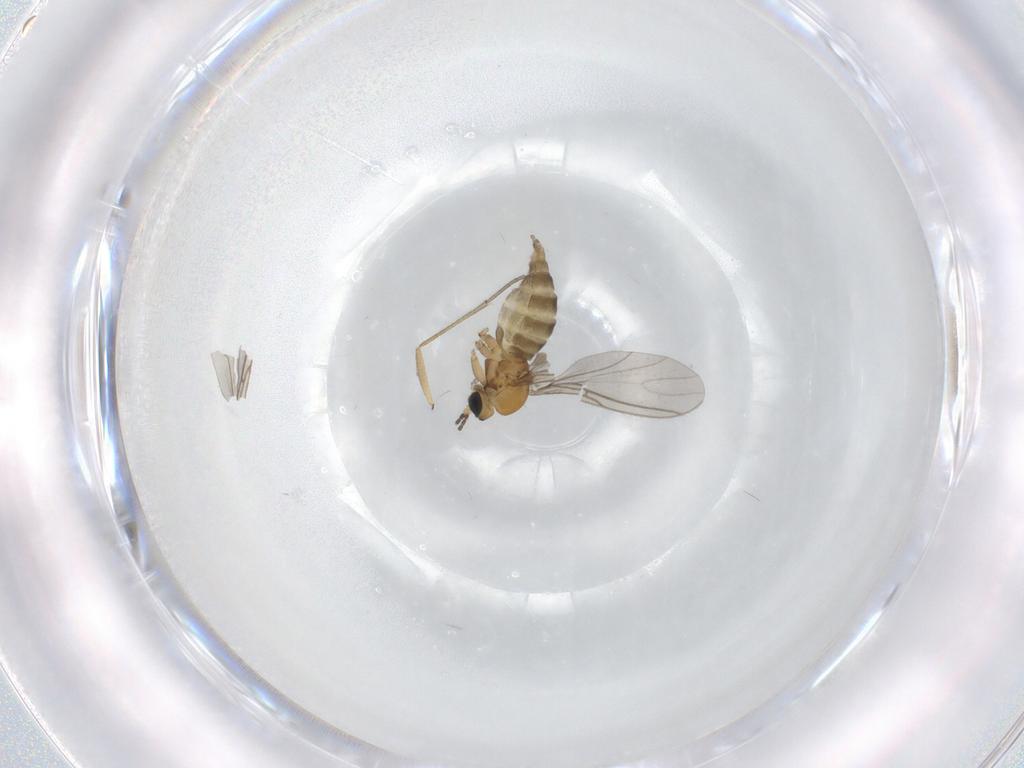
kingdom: Animalia
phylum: Arthropoda
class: Insecta
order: Diptera
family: Sciaridae
